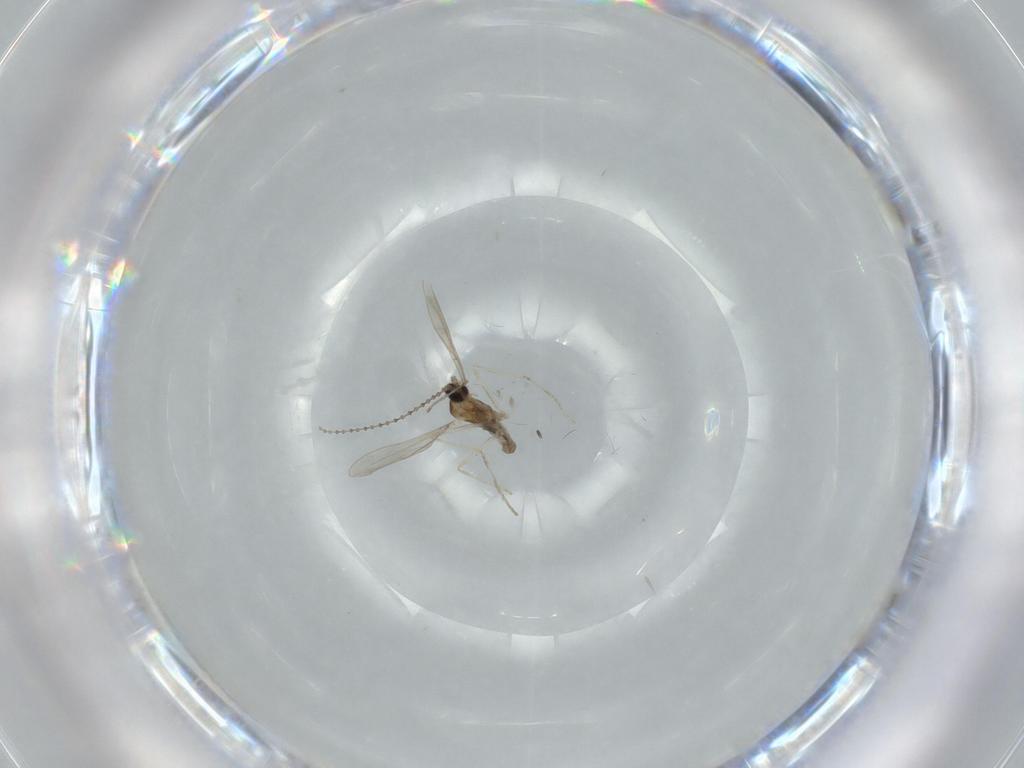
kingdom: Animalia
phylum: Arthropoda
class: Insecta
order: Diptera
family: Cecidomyiidae
